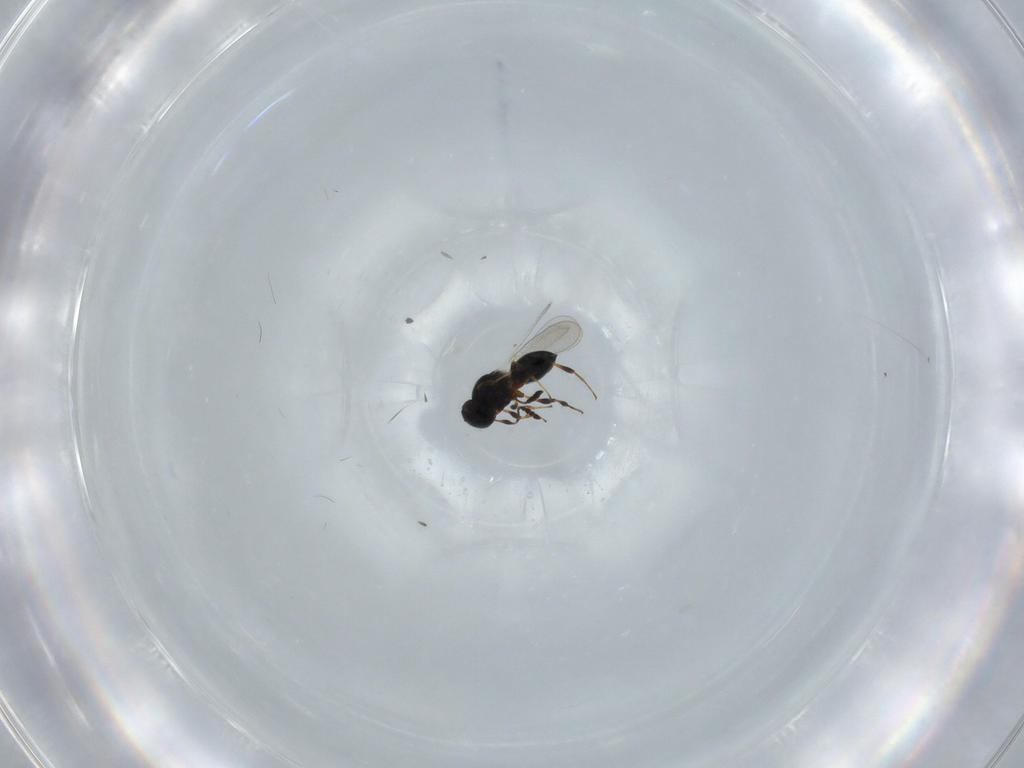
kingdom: Animalia
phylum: Arthropoda
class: Insecta
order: Hymenoptera
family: Platygastridae
